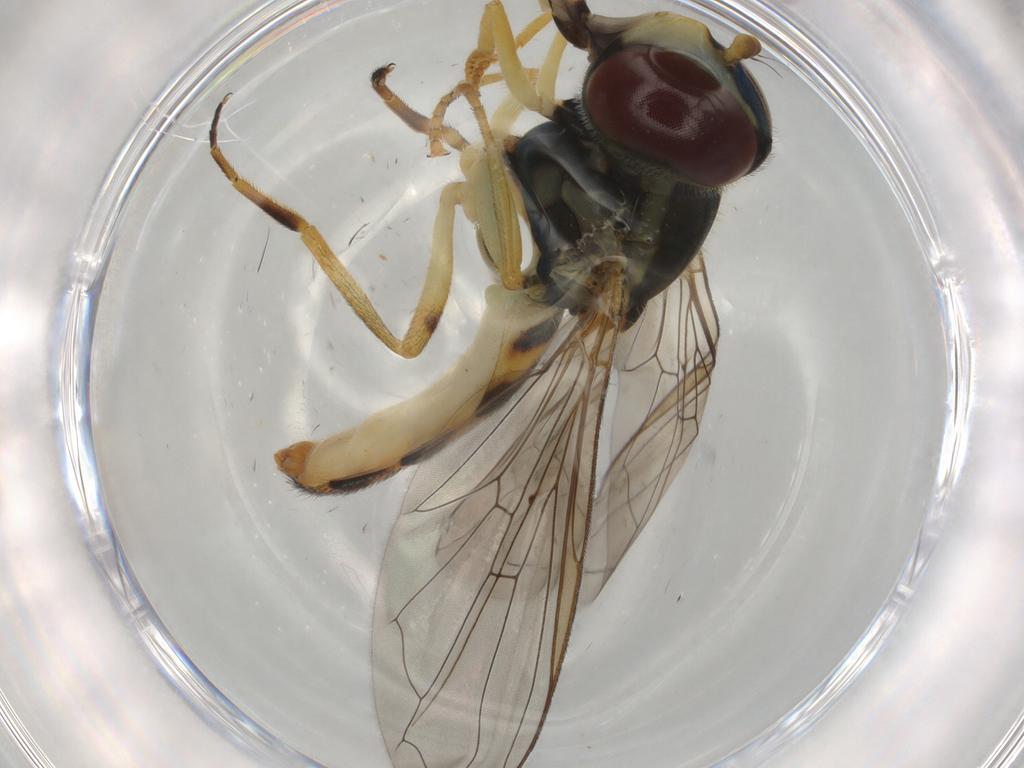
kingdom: Animalia
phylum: Arthropoda
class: Insecta
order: Diptera
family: Syrphidae
